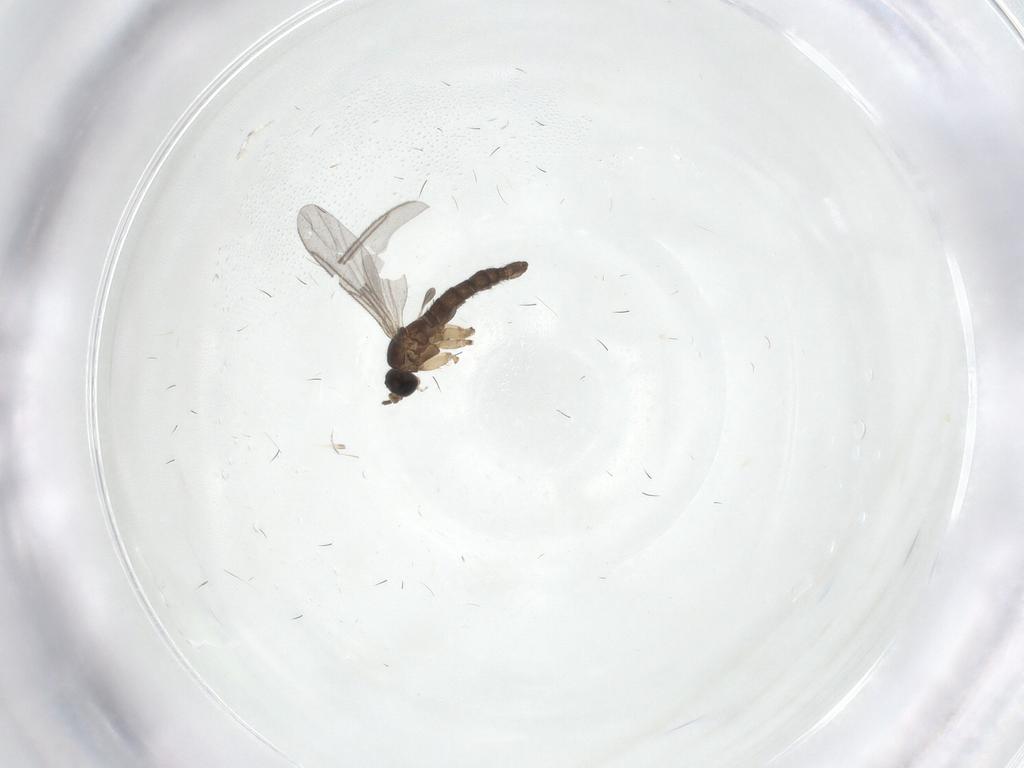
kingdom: Animalia
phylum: Arthropoda
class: Insecta
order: Diptera
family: Sciaridae
